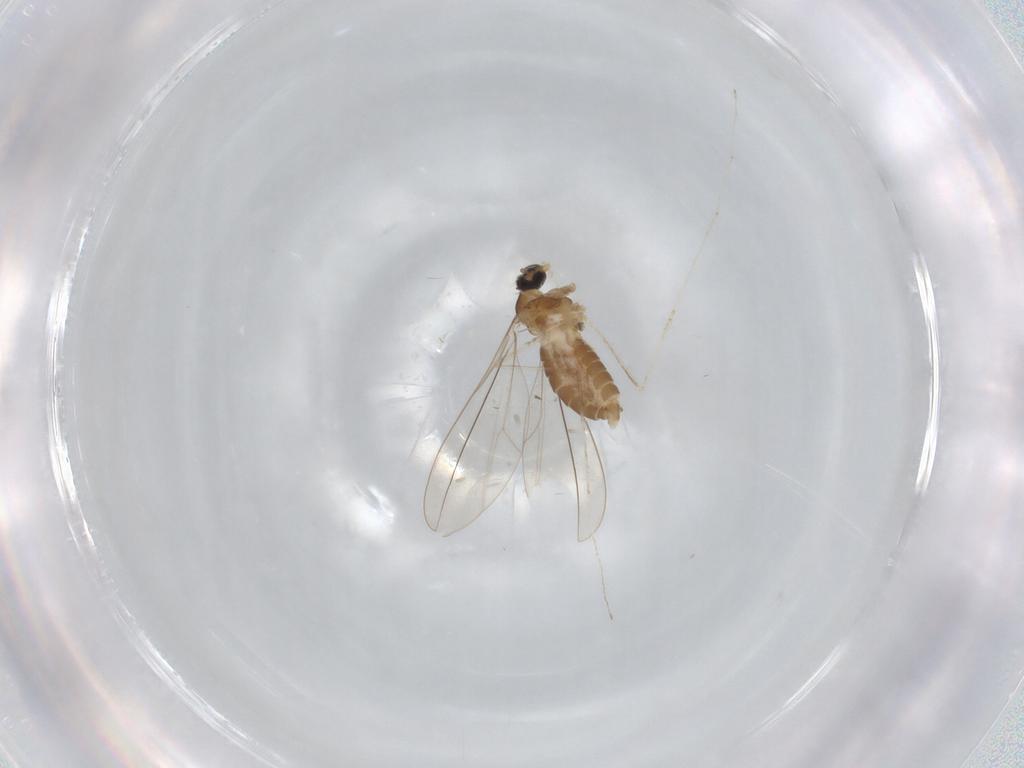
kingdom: Animalia
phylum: Arthropoda
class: Insecta
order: Diptera
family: Cecidomyiidae
